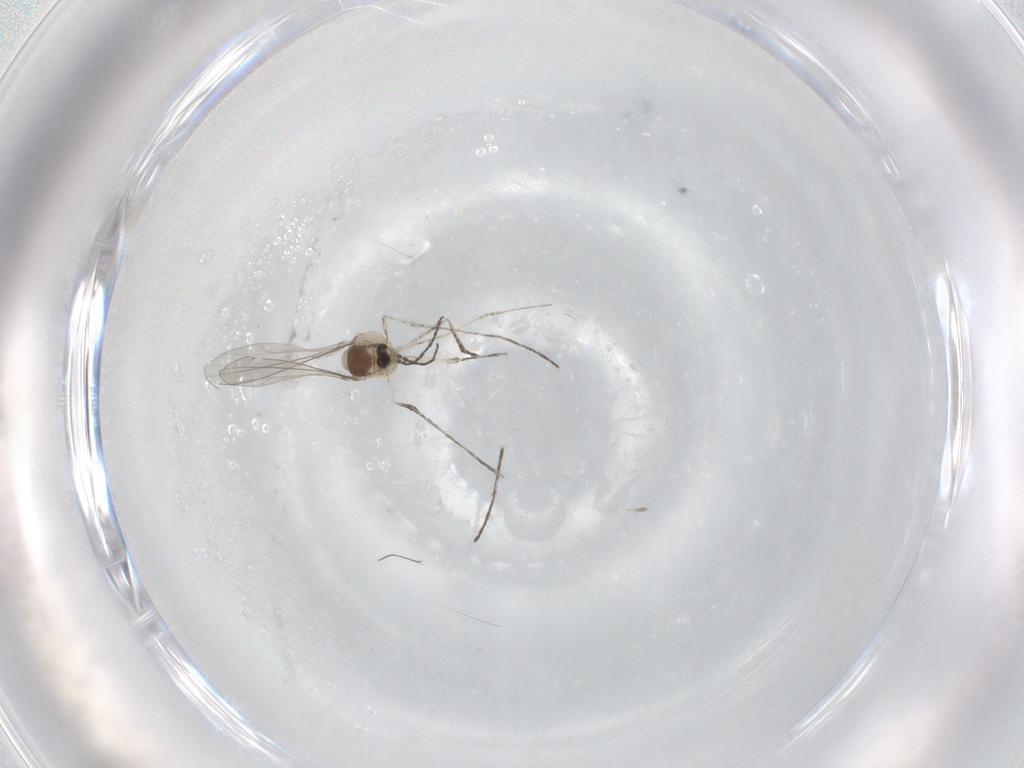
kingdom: Animalia
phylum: Arthropoda
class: Insecta
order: Diptera
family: Cecidomyiidae
